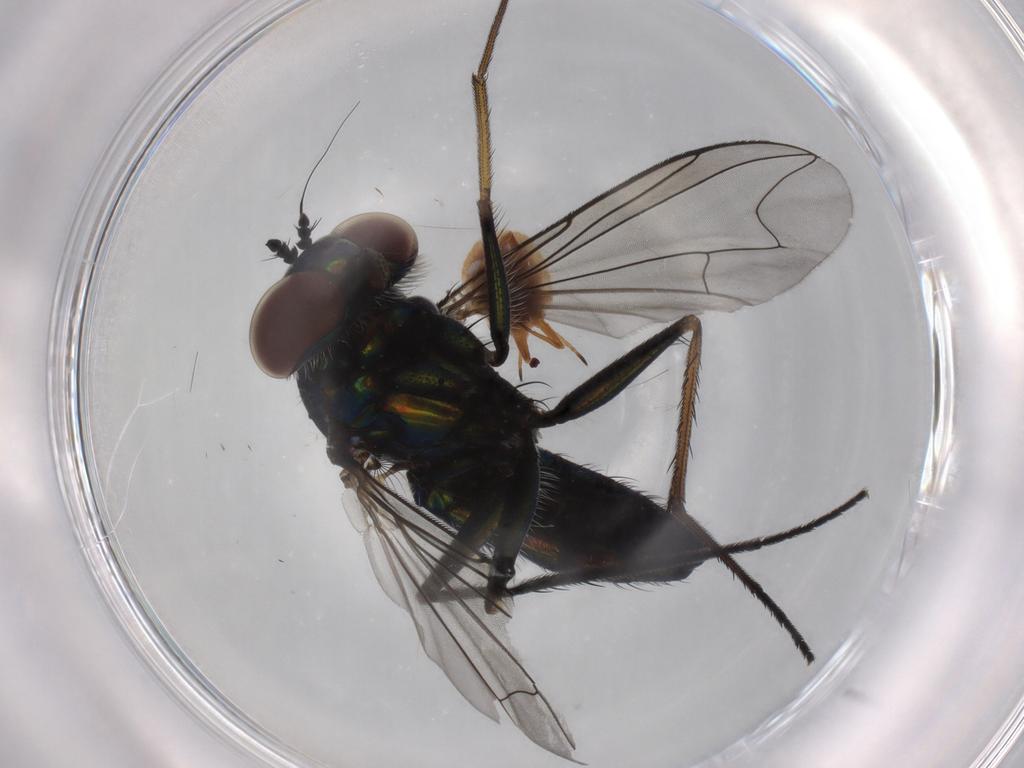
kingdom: Animalia
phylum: Arthropoda
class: Insecta
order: Diptera
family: Dolichopodidae
